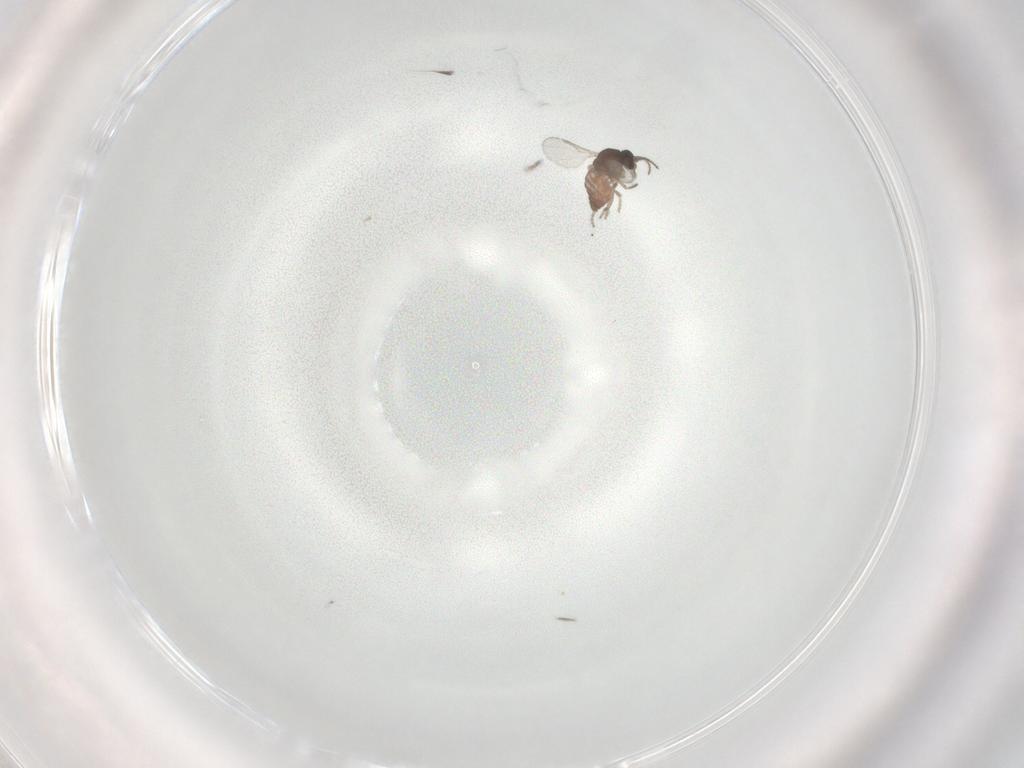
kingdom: Animalia
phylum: Arthropoda
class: Insecta
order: Diptera
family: Ceratopogonidae
